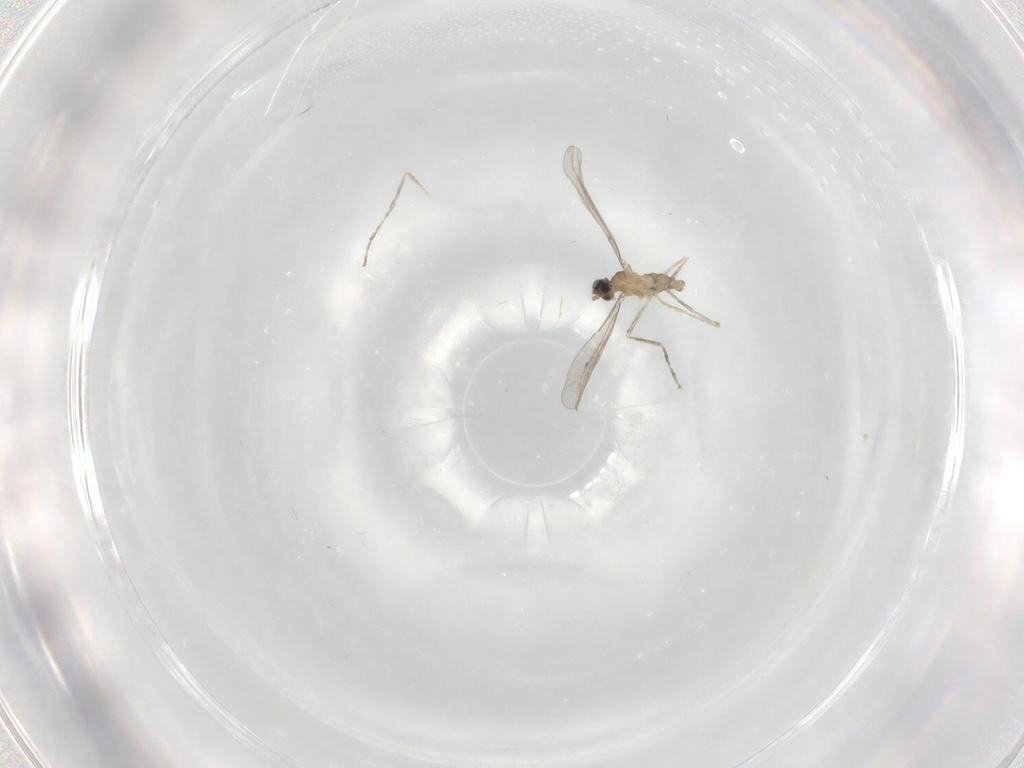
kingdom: Animalia
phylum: Arthropoda
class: Insecta
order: Diptera
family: Cecidomyiidae
